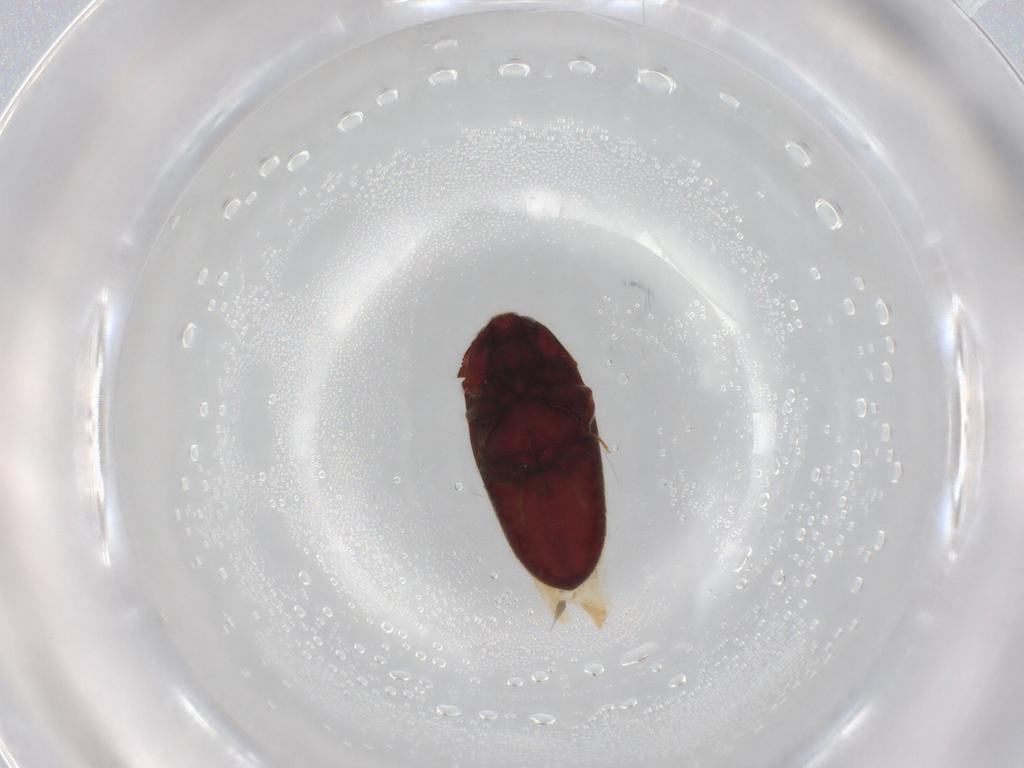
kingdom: Animalia
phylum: Arthropoda
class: Insecta
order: Coleoptera
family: Throscidae
